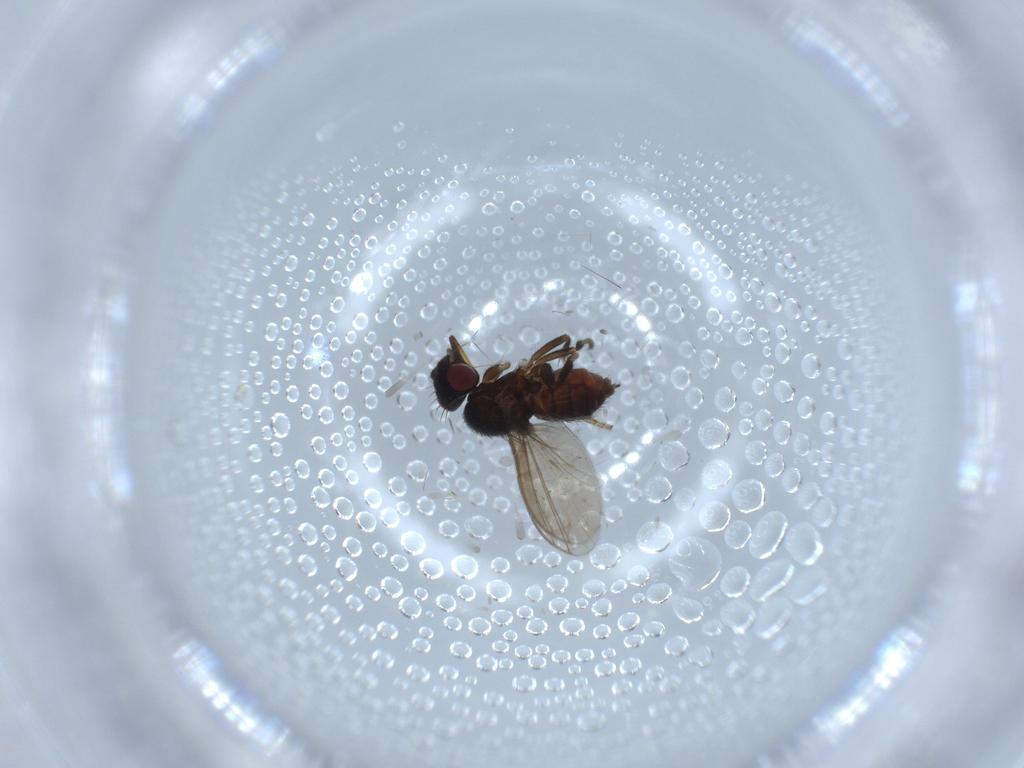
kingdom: Animalia
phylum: Arthropoda
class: Insecta
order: Diptera
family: Milichiidae
